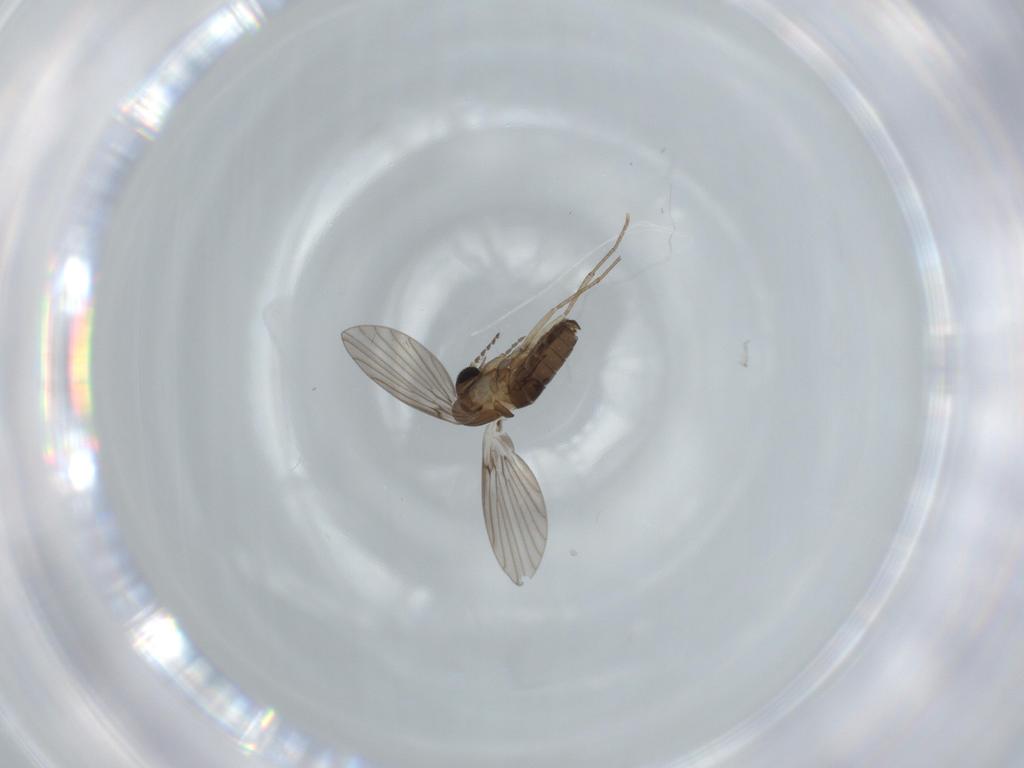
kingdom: Animalia
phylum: Arthropoda
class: Insecta
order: Diptera
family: Psychodidae
